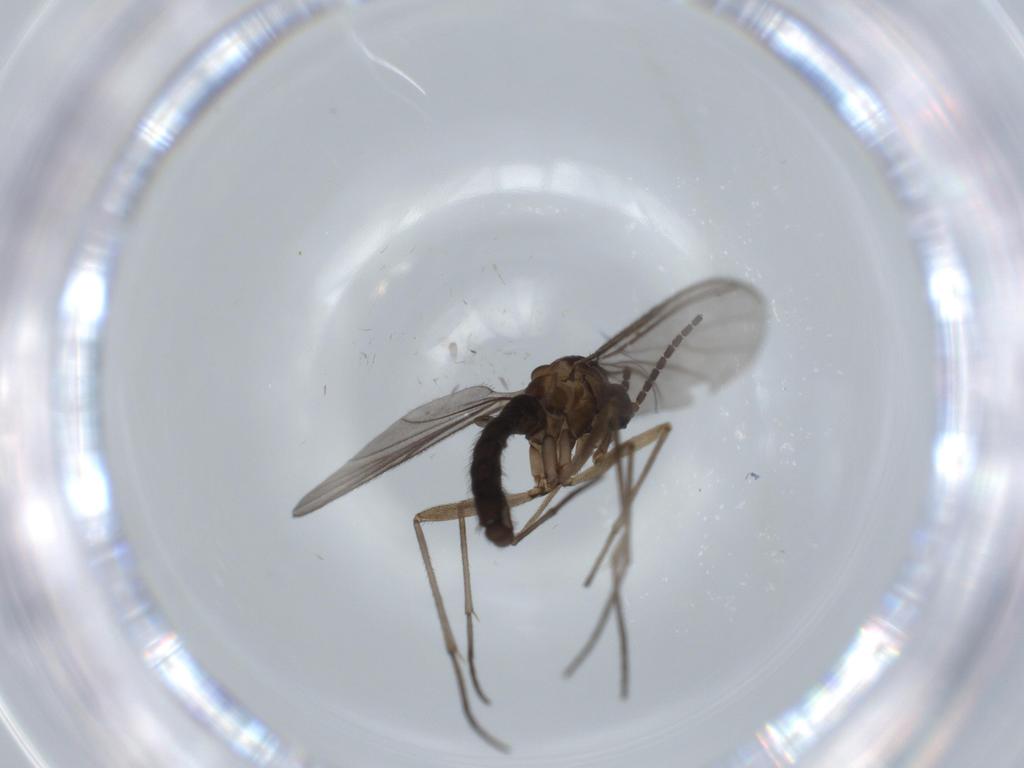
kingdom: Animalia
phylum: Arthropoda
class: Insecta
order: Diptera
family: Sciaridae
